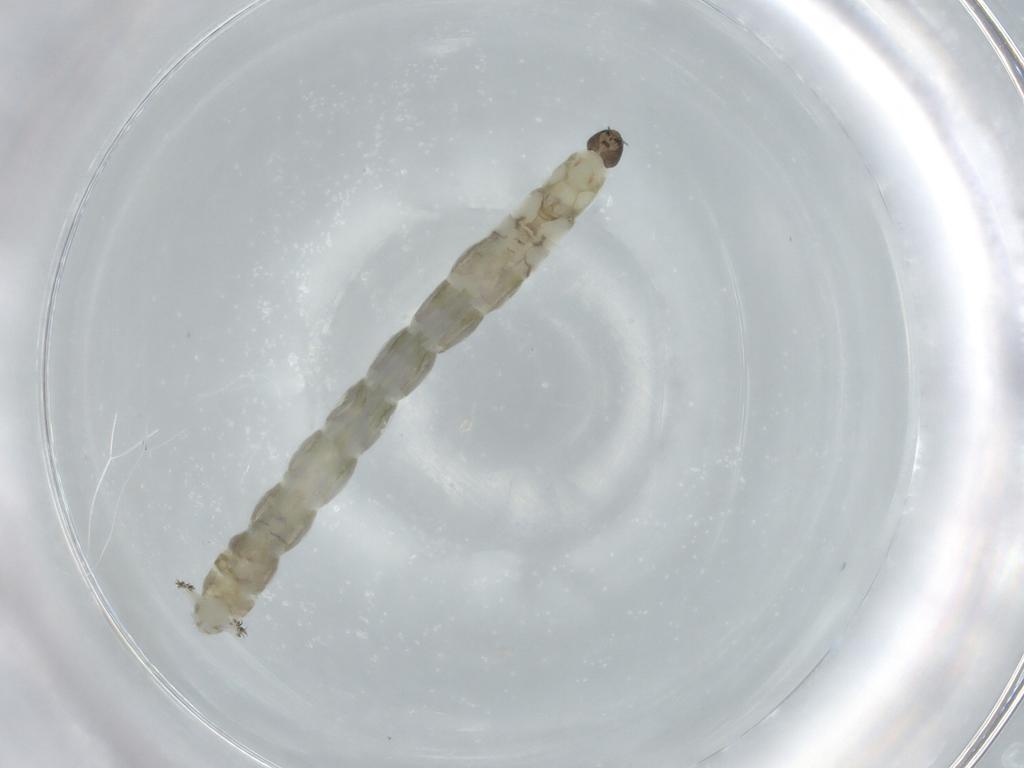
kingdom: Animalia
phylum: Arthropoda
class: Insecta
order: Diptera
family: Sciaridae
